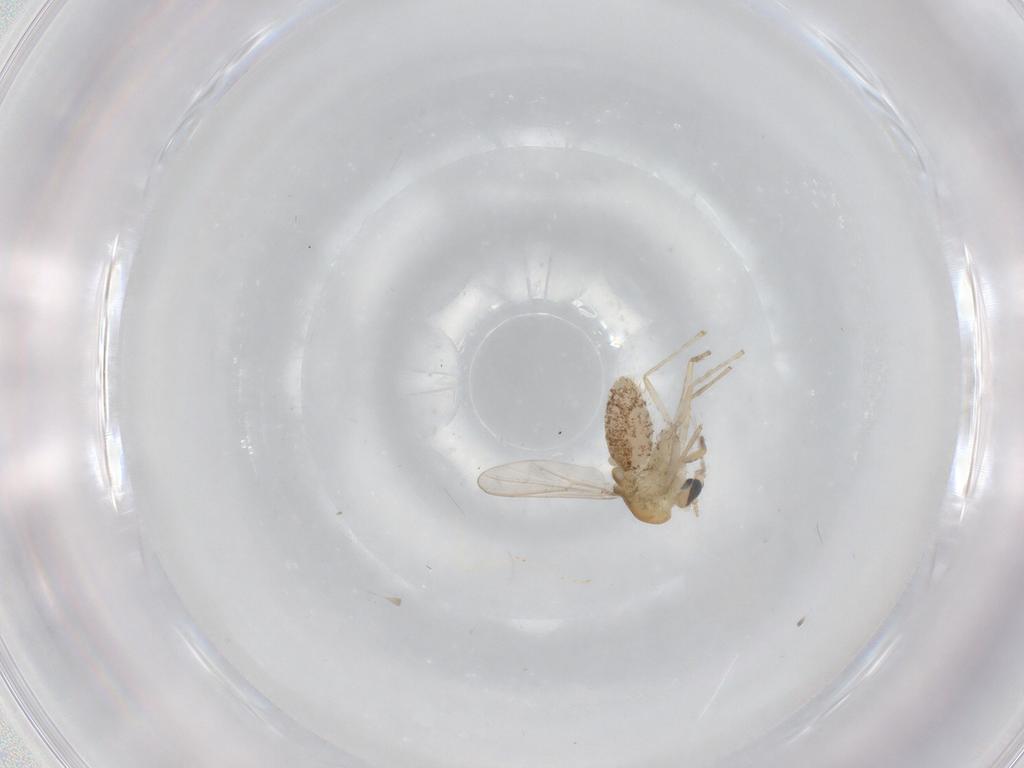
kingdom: Animalia
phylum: Arthropoda
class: Insecta
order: Diptera
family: Chironomidae
